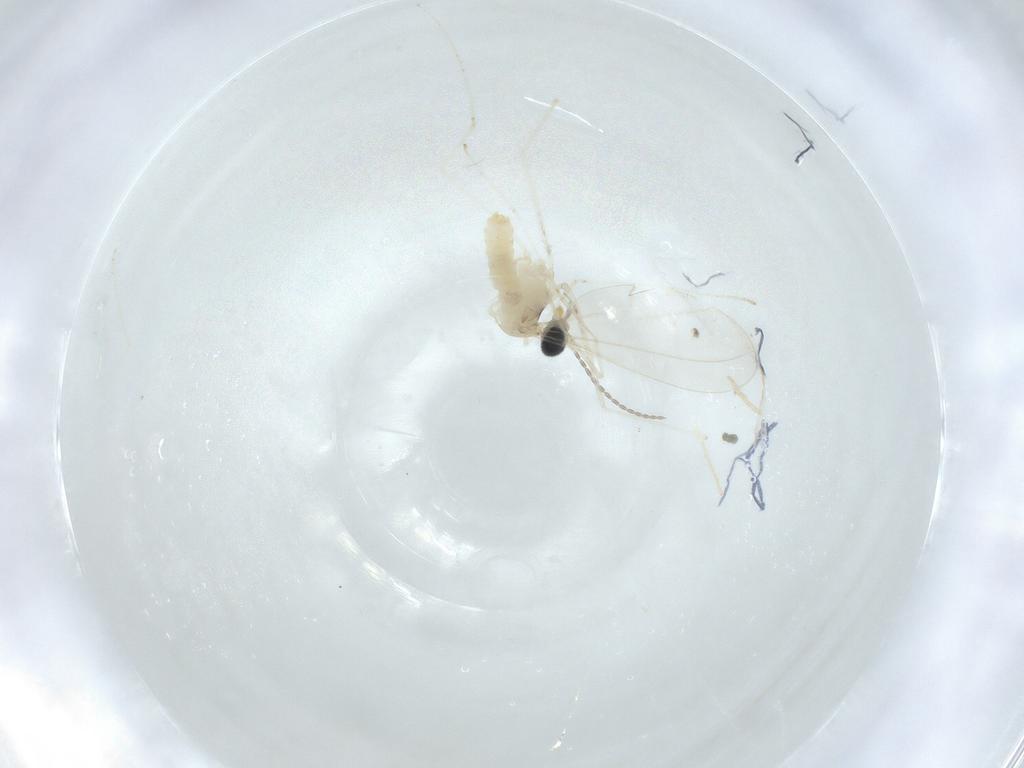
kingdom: Animalia
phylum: Arthropoda
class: Insecta
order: Diptera
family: Cecidomyiidae
